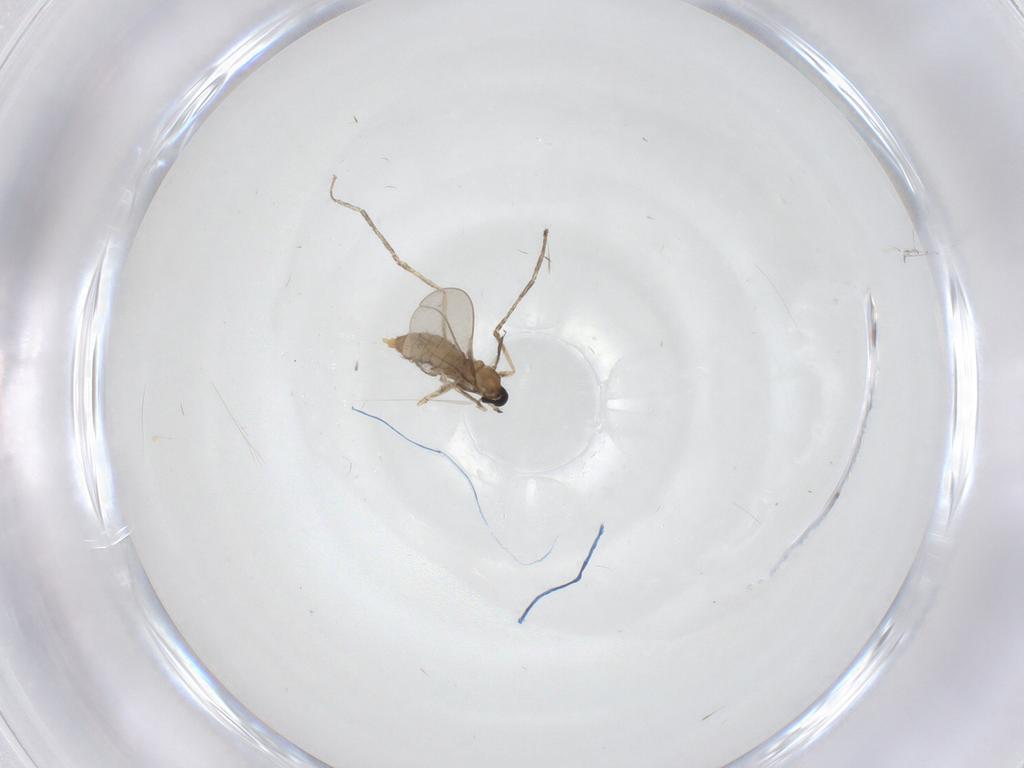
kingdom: Animalia
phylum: Arthropoda
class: Insecta
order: Diptera
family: Cecidomyiidae
